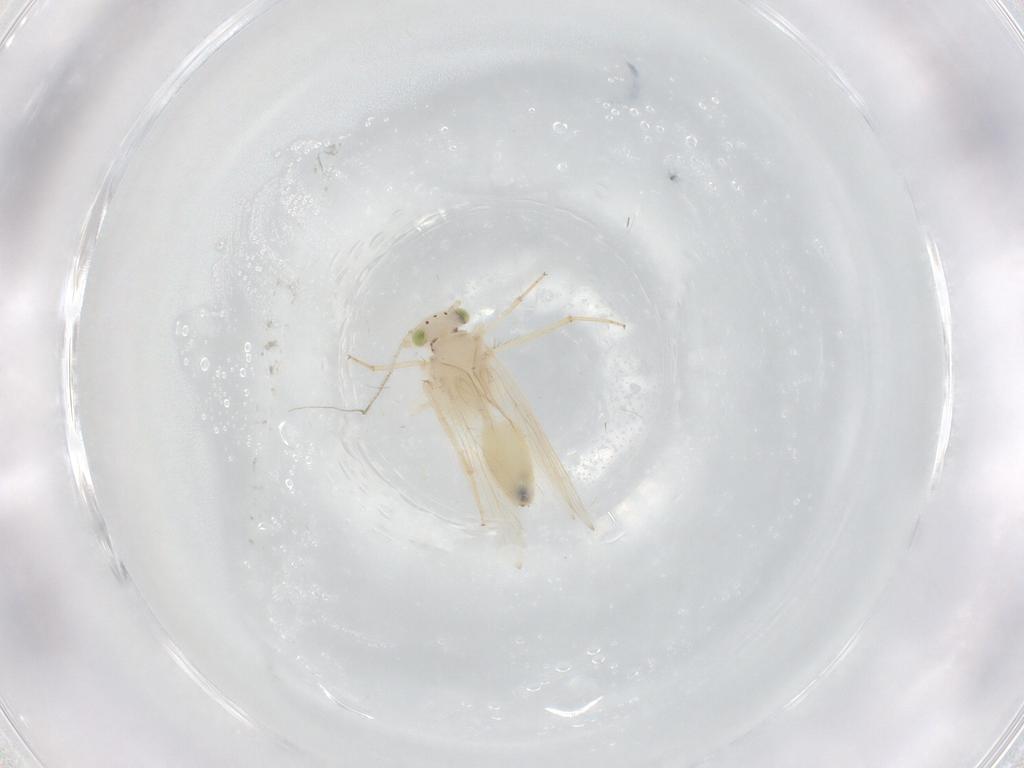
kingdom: Animalia
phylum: Arthropoda
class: Insecta
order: Psocodea
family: Lepidopsocidae
